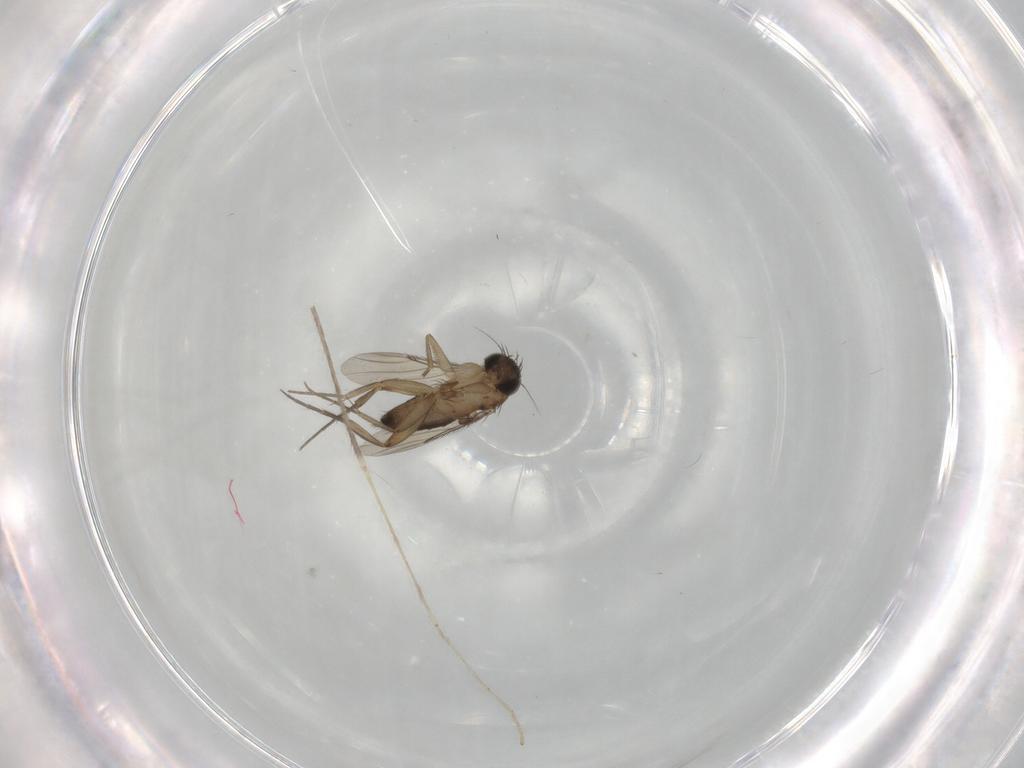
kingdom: Animalia
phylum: Arthropoda
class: Insecta
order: Diptera
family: Phoridae
